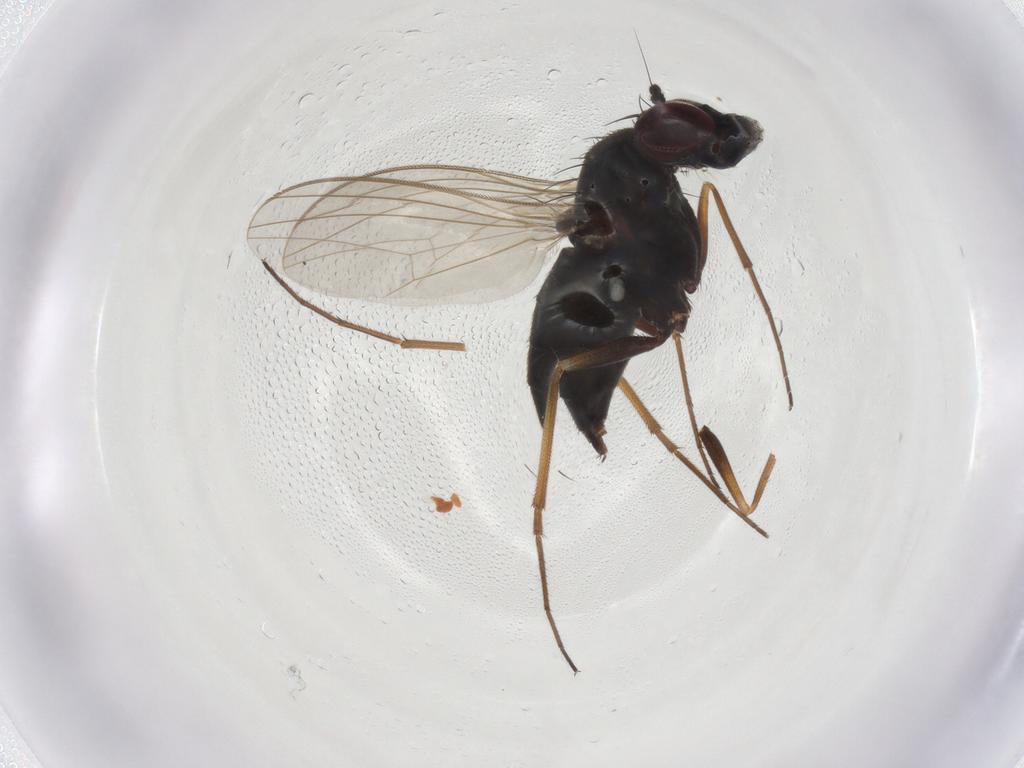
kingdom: Animalia
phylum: Arthropoda
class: Insecta
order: Diptera
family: Dolichopodidae
